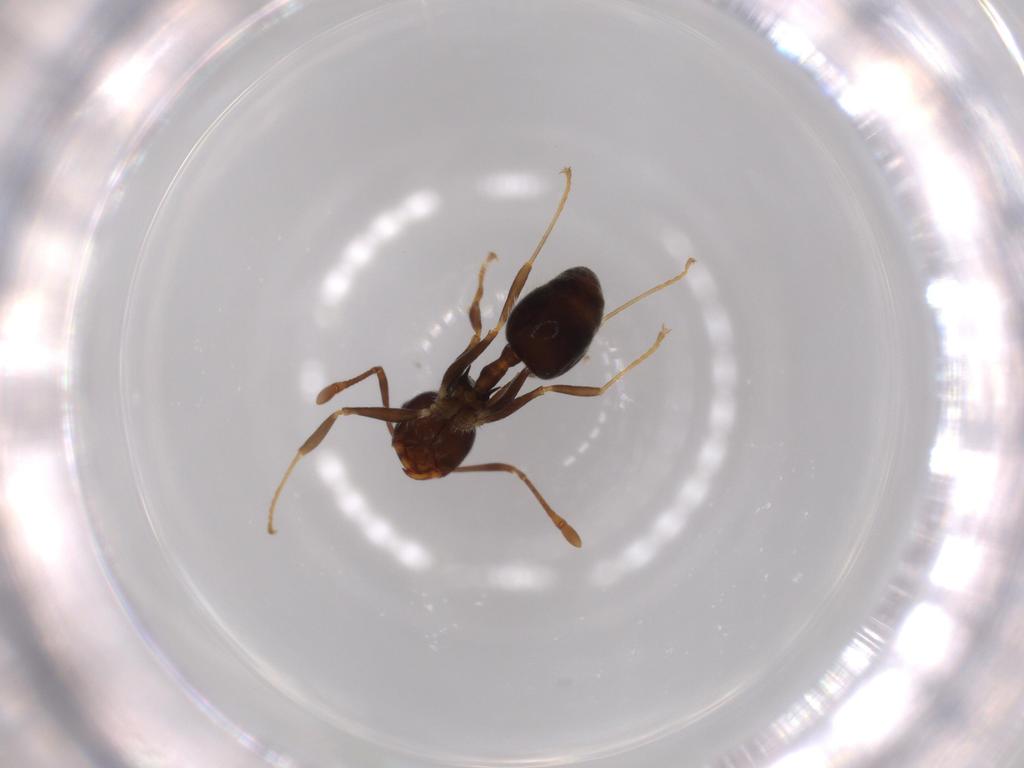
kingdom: Animalia
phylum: Arthropoda
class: Insecta
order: Hymenoptera
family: Formicidae
